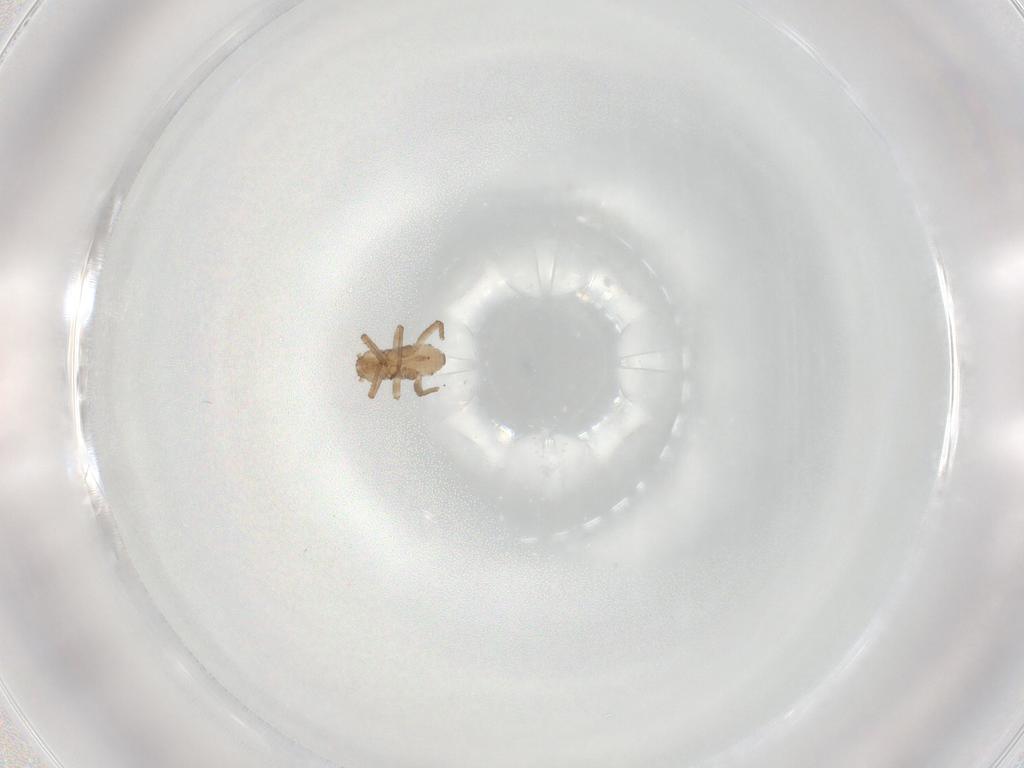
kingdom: Animalia
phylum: Arthropoda
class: Insecta
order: Hemiptera
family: Aphididae
